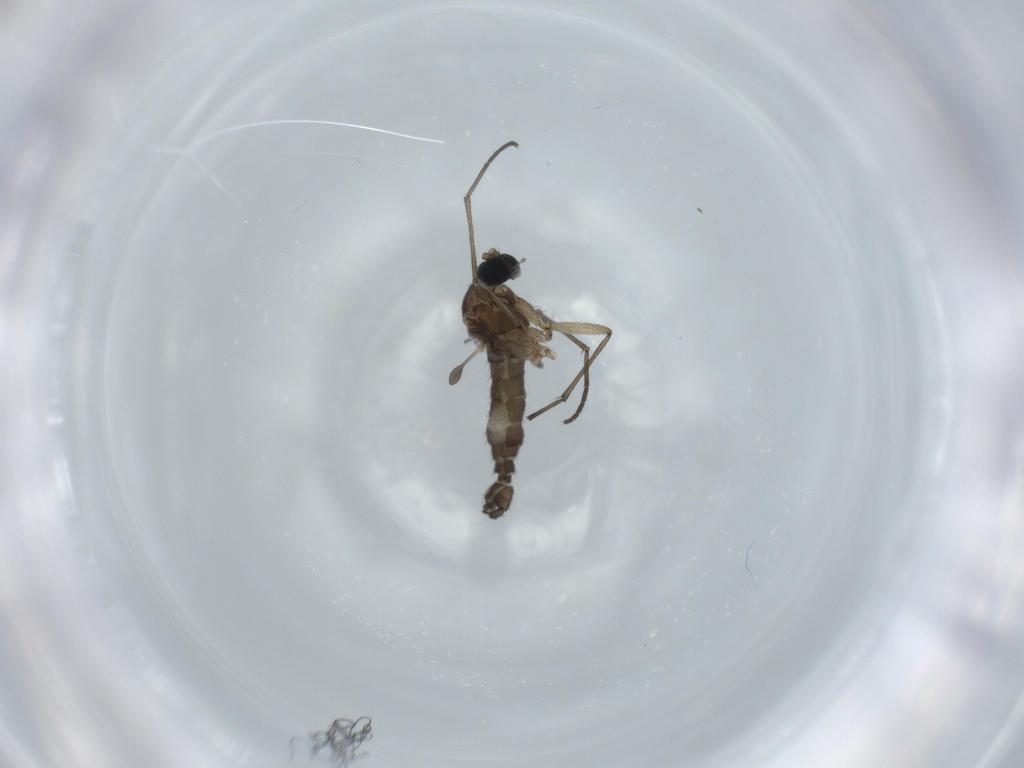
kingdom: Animalia
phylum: Arthropoda
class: Insecta
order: Diptera
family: Sciaridae
